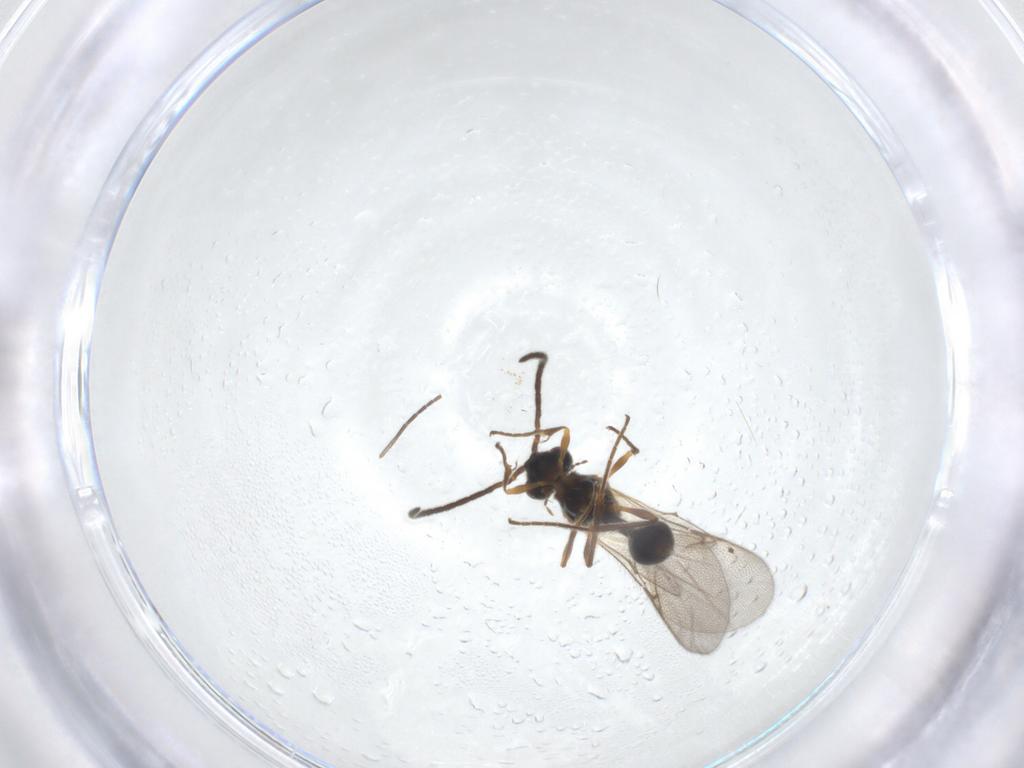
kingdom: Animalia
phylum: Arthropoda
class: Insecta
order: Hymenoptera
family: Diapriidae
